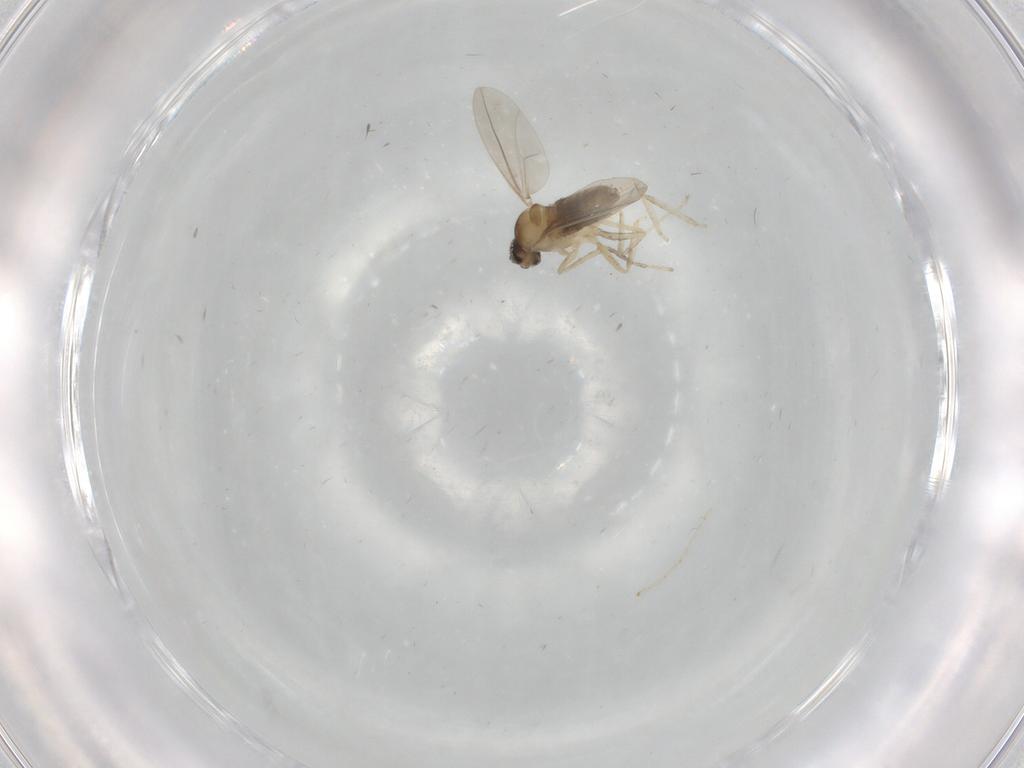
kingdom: Animalia
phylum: Arthropoda
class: Insecta
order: Diptera
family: Cecidomyiidae
